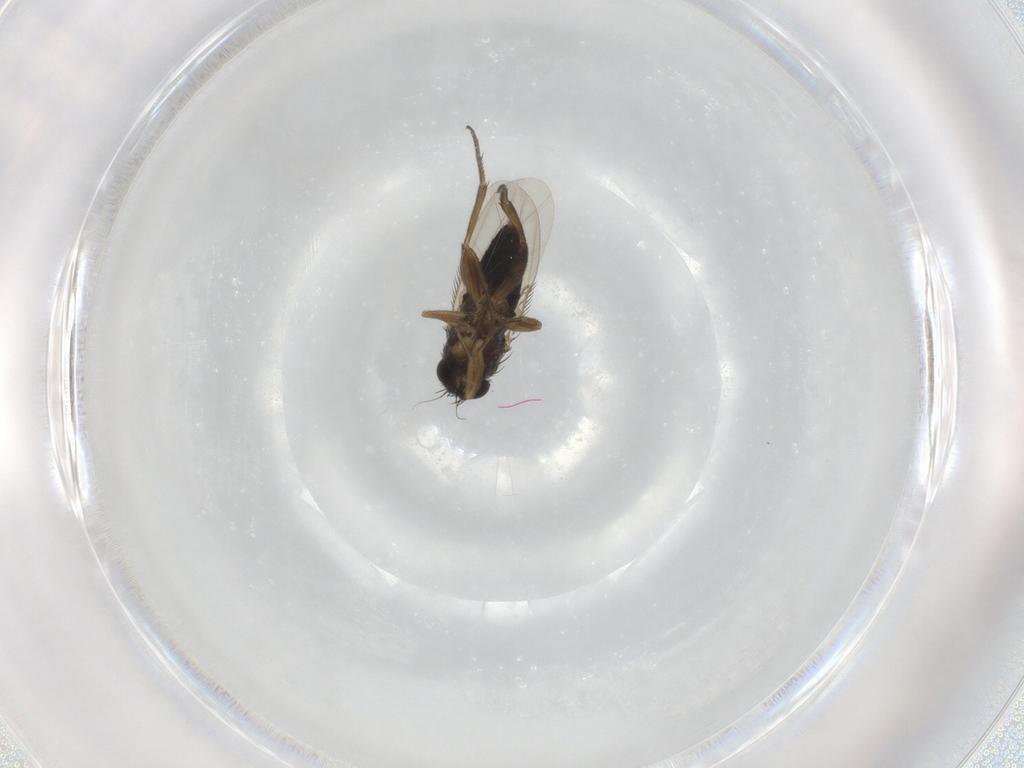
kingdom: Animalia
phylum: Arthropoda
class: Insecta
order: Diptera
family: Phoridae
